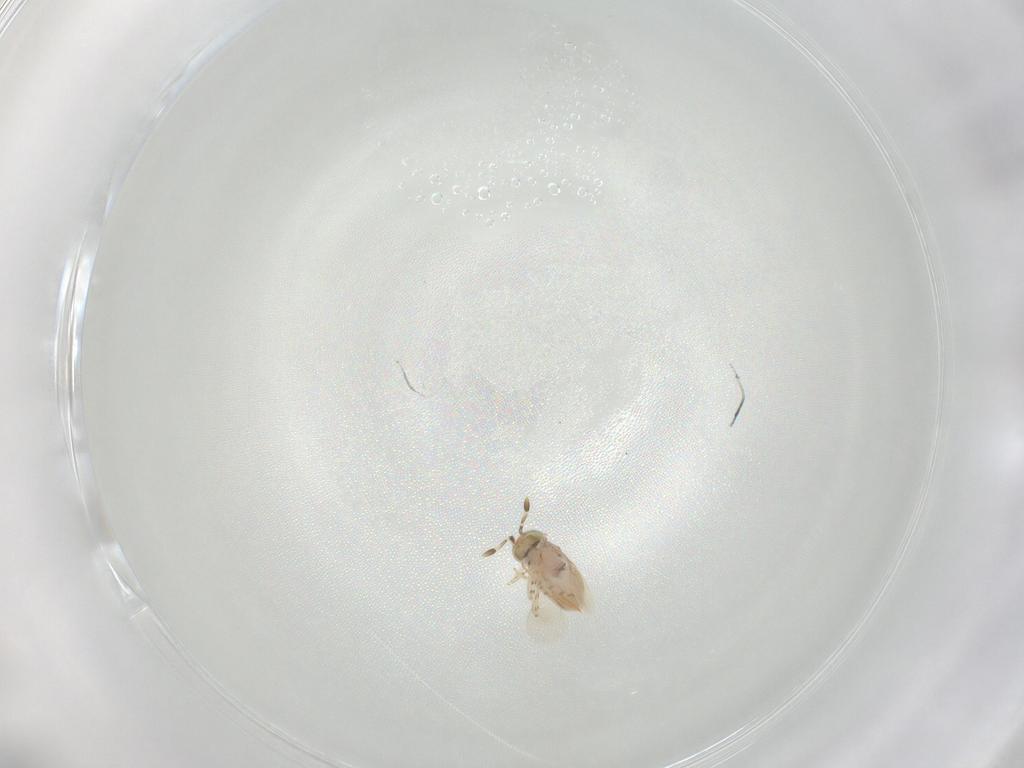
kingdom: Animalia
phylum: Arthropoda
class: Insecta
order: Hymenoptera
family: Encyrtidae
